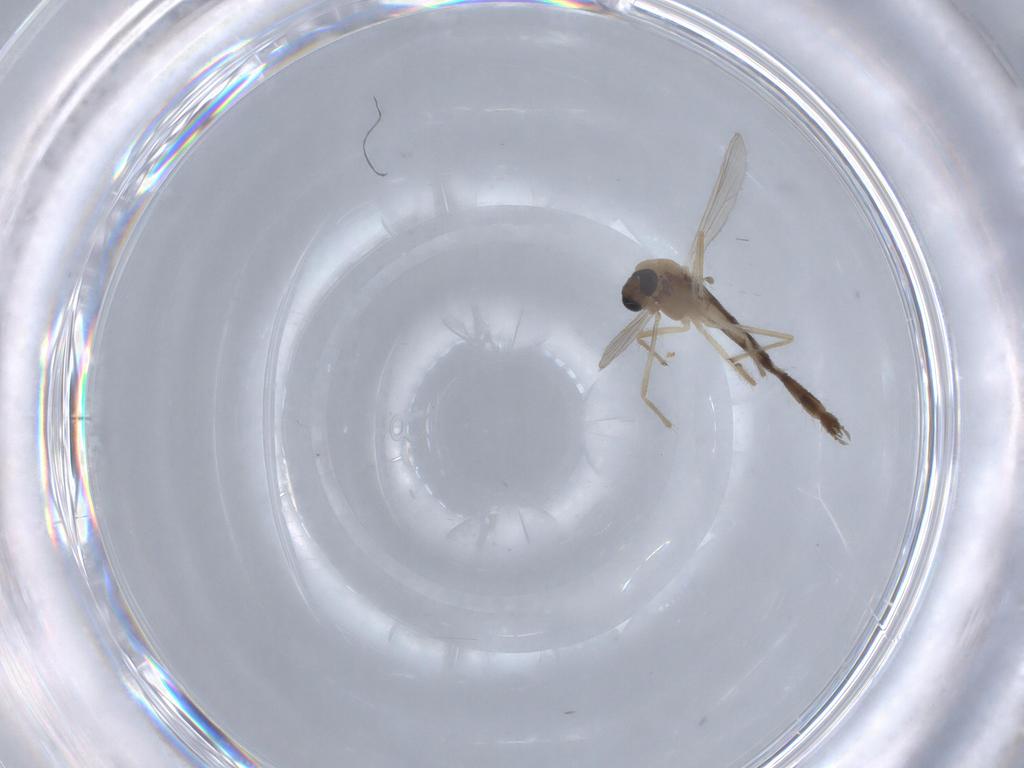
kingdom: Animalia
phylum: Arthropoda
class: Insecta
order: Diptera
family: Chironomidae
